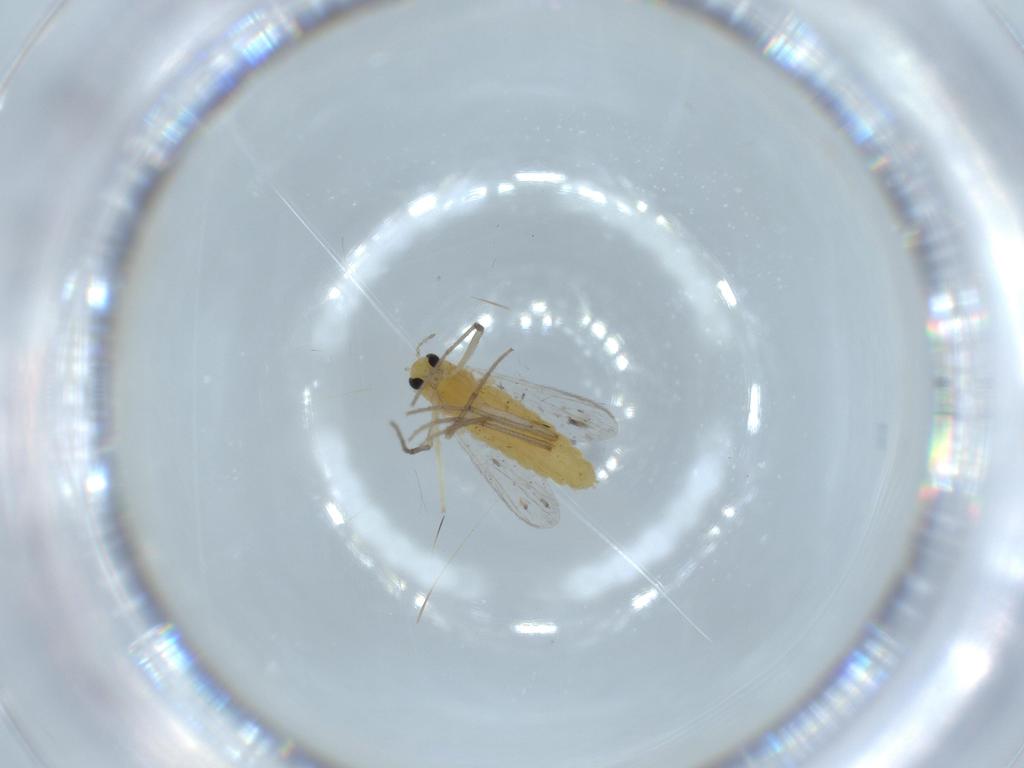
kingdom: Animalia
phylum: Arthropoda
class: Insecta
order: Diptera
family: Chironomidae
